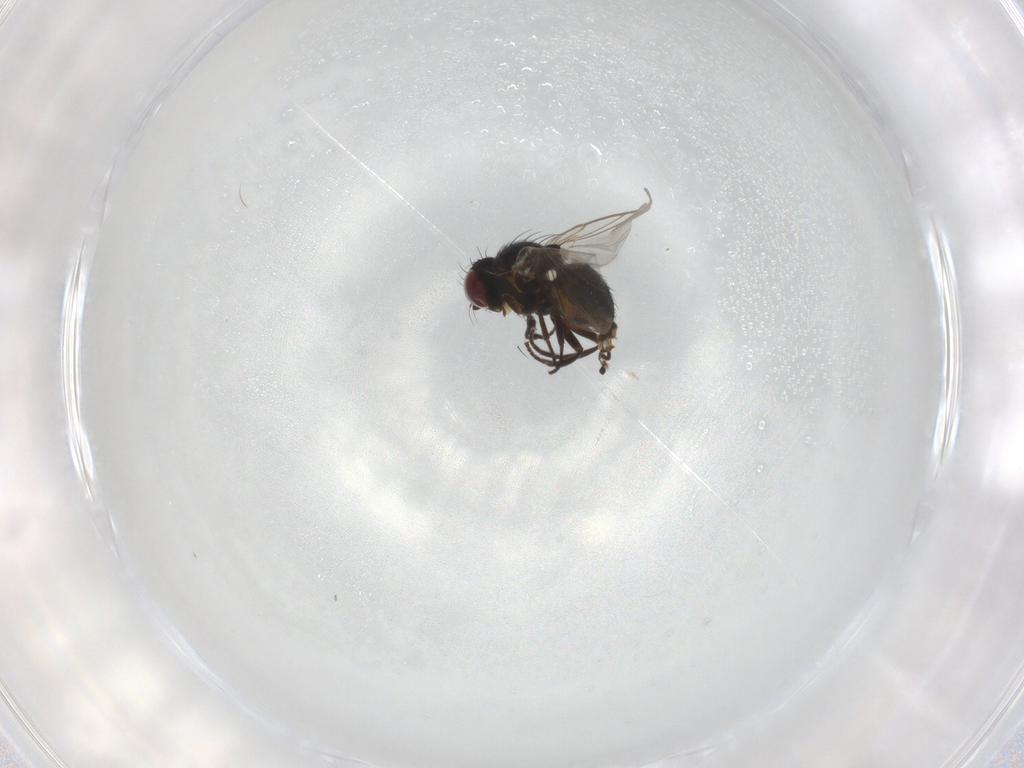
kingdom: Animalia
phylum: Arthropoda
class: Insecta
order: Diptera
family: Agromyzidae
